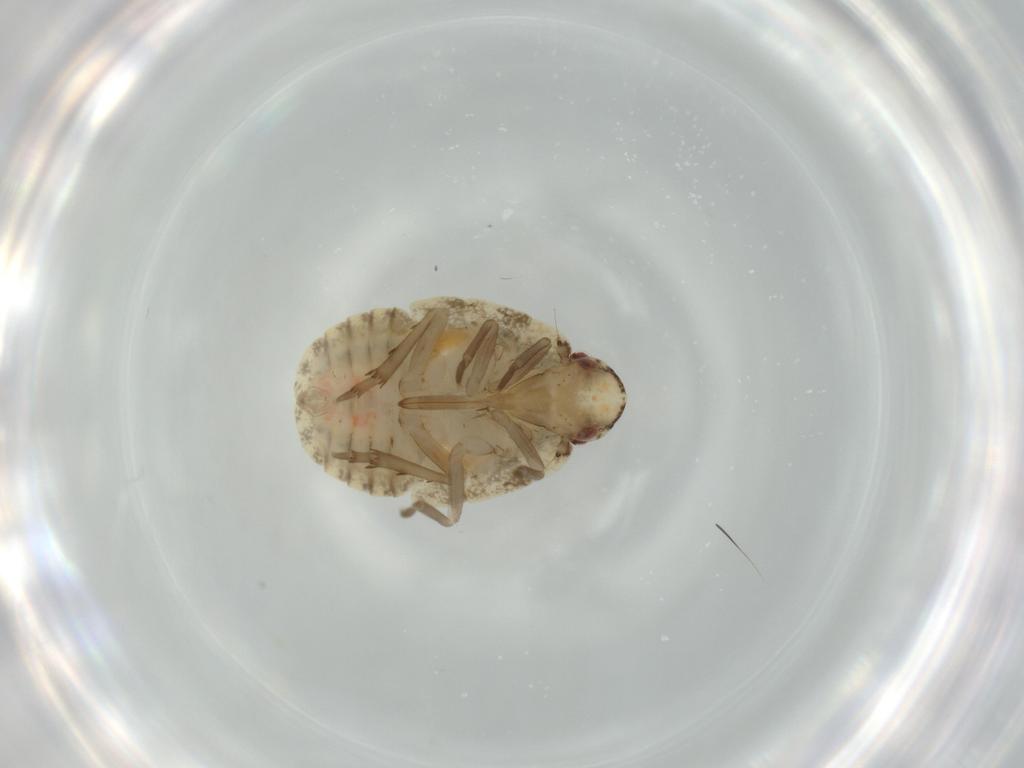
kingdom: Animalia
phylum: Arthropoda
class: Insecta
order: Hemiptera
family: Flatidae
